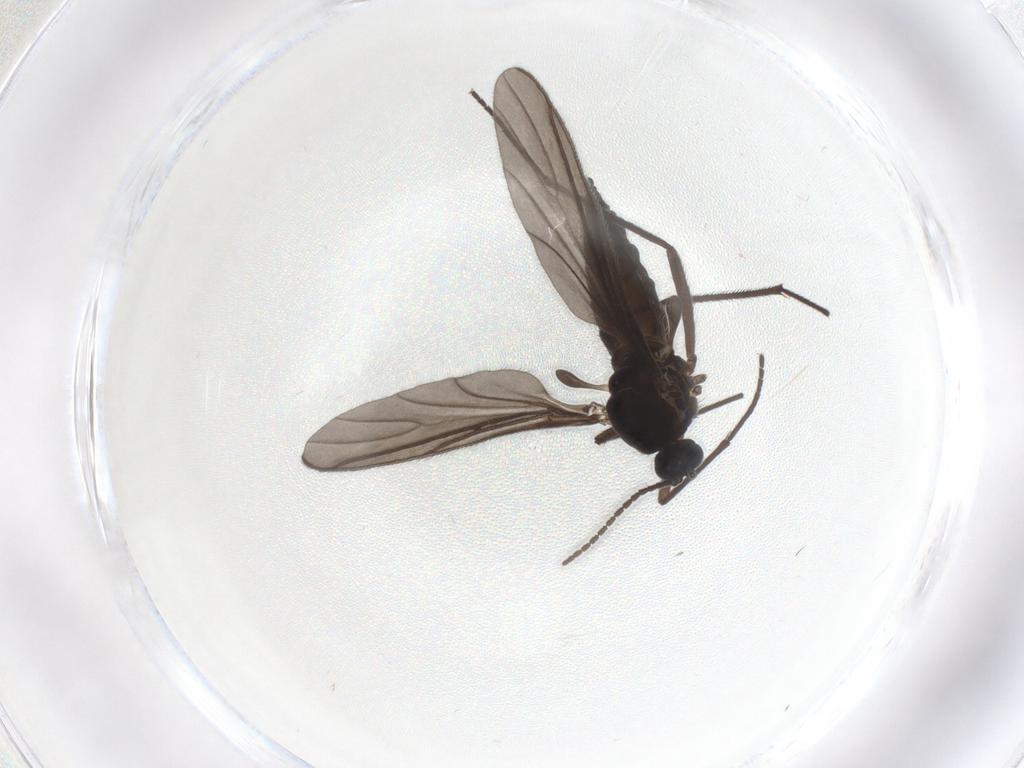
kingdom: Animalia
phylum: Arthropoda
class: Insecta
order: Diptera
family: Sciaridae
